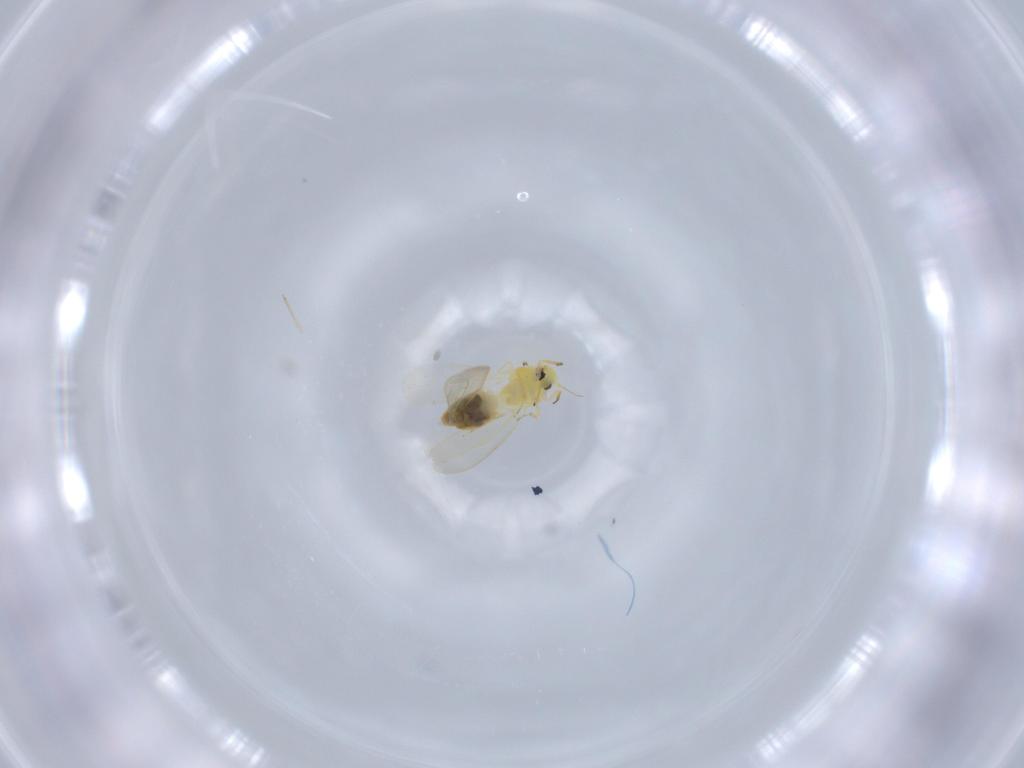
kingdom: Animalia
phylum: Arthropoda
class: Insecta
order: Hemiptera
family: Aleyrodidae
